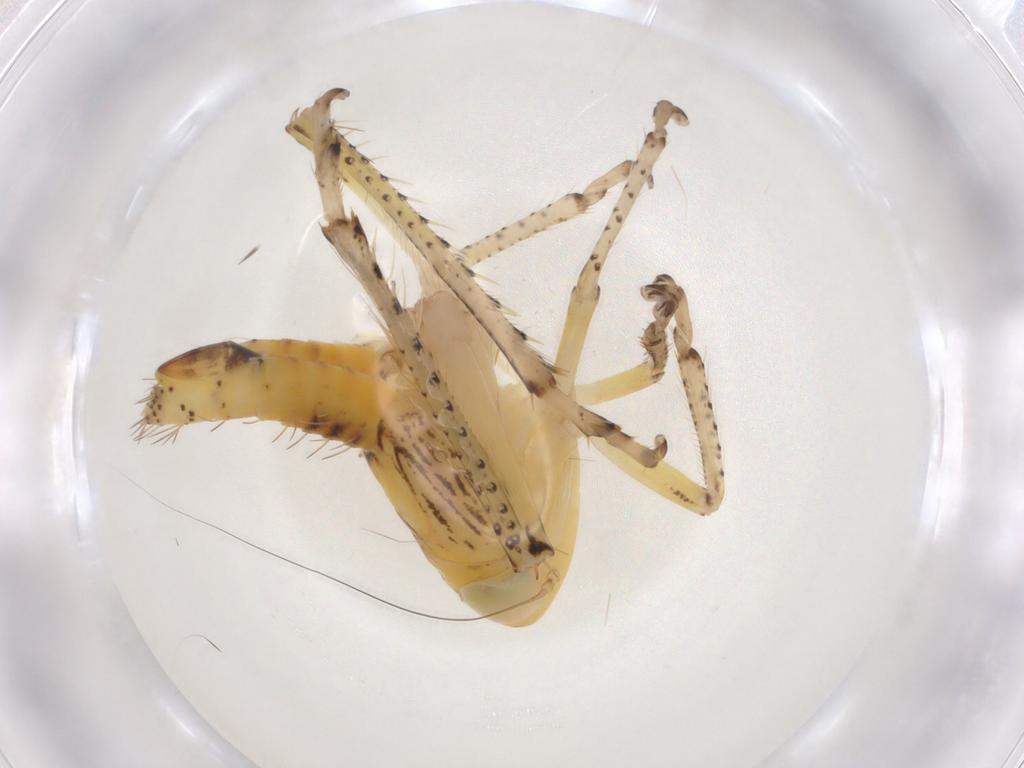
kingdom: Animalia
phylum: Arthropoda
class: Insecta
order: Hemiptera
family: Cicadellidae
